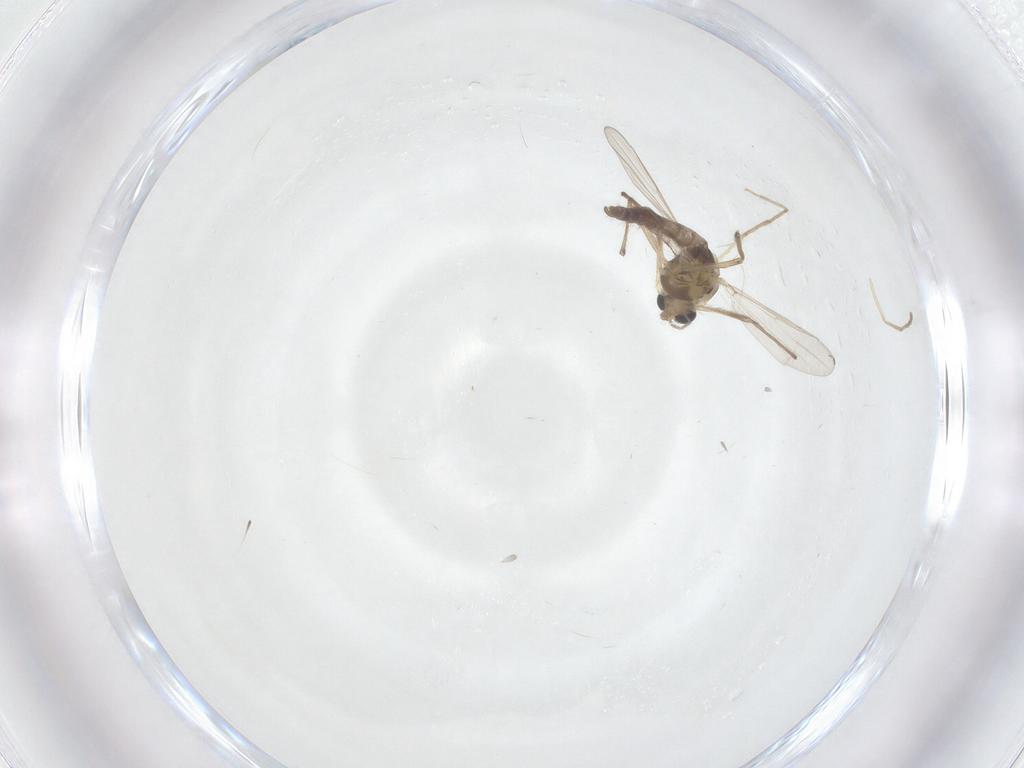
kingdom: Animalia
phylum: Arthropoda
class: Insecta
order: Diptera
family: Chironomidae
